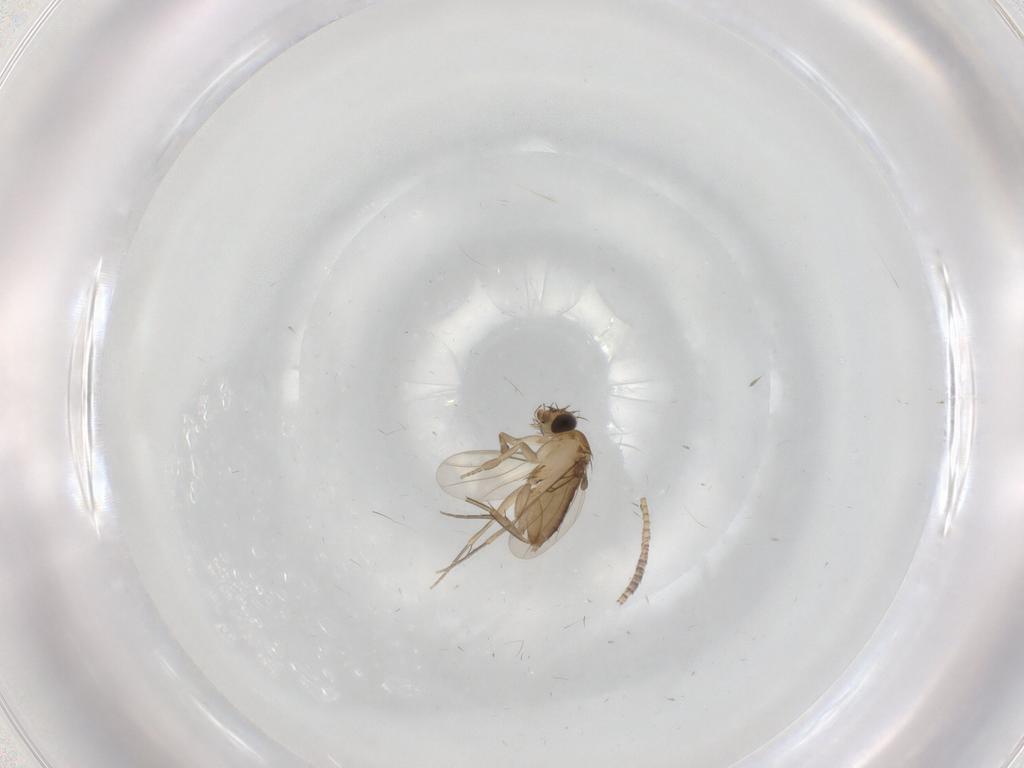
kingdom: Animalia
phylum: Arthropoda
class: Insecta
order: Diptera
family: Phoridae
